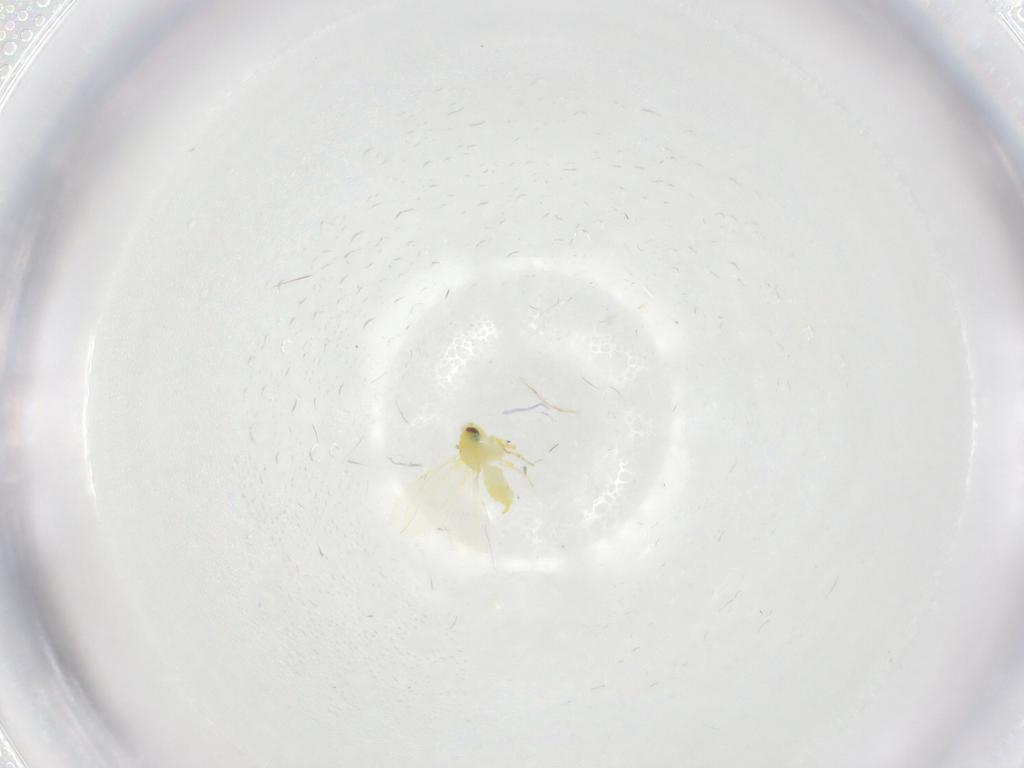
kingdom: Animalia
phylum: Arthropoda
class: Insecta
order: Hemiptera
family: Aleyrodidae
